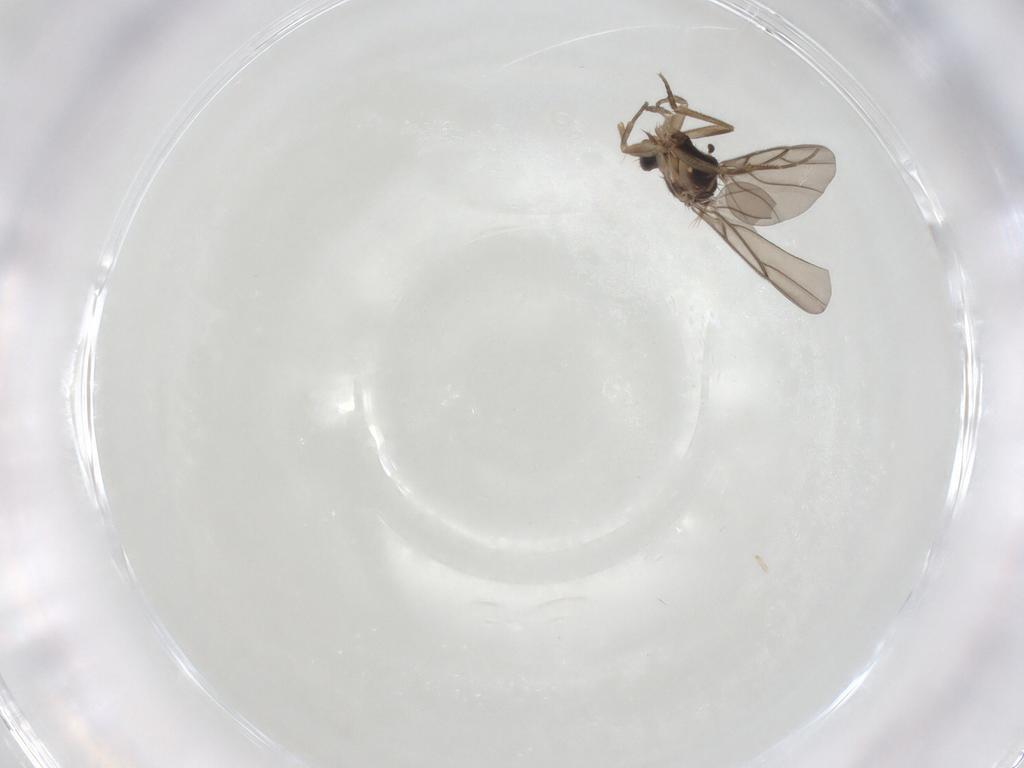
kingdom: Animalia
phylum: Arthropoda
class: Insecta
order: Diptera
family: Phoridae
